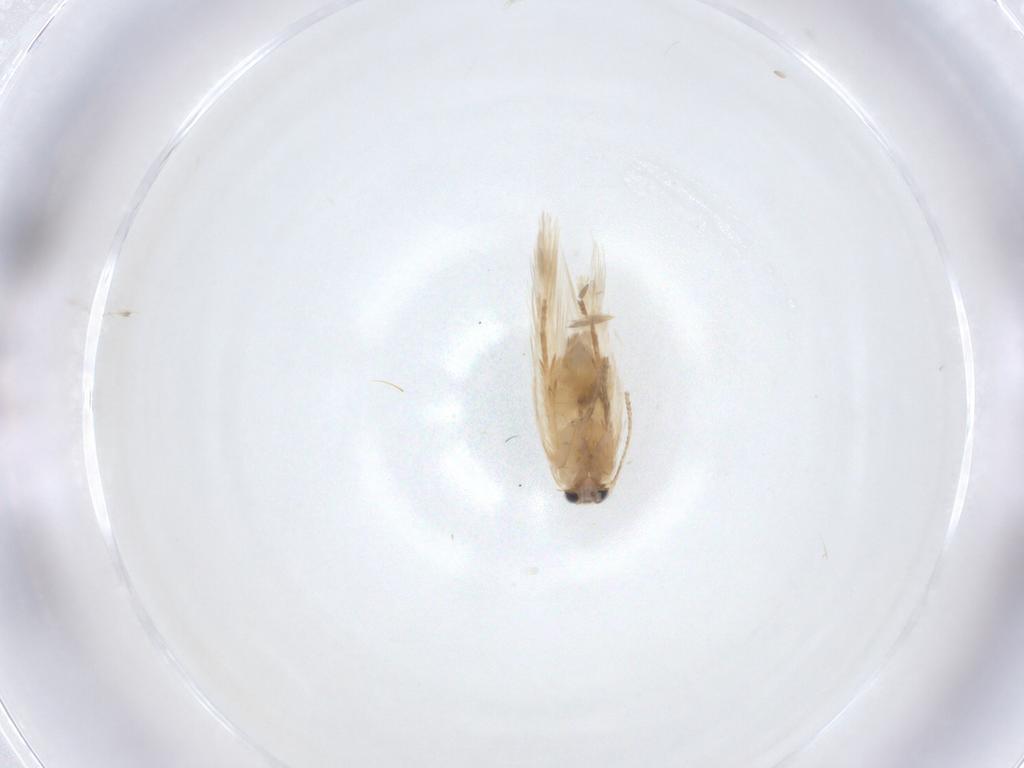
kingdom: Animalia
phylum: Arthropoda
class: Insecta
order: Lepidoptera
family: Nepticulidae
